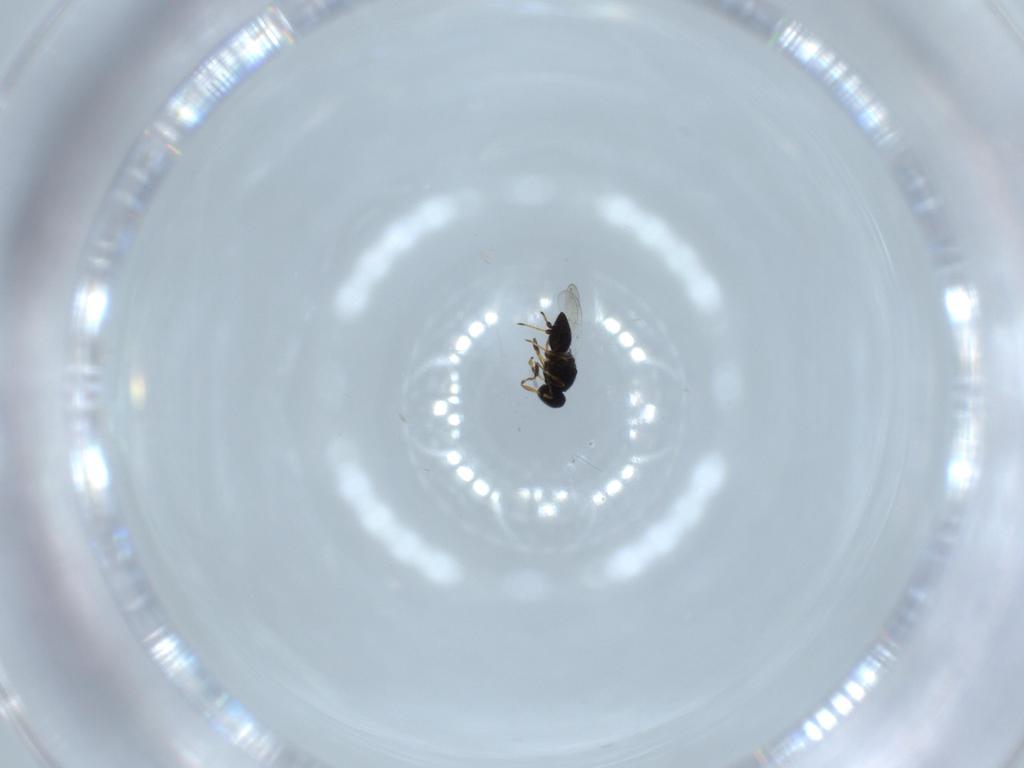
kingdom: Animalia
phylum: Arthropoda
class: Insecta
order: Hymenoptera
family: Platygastridae
